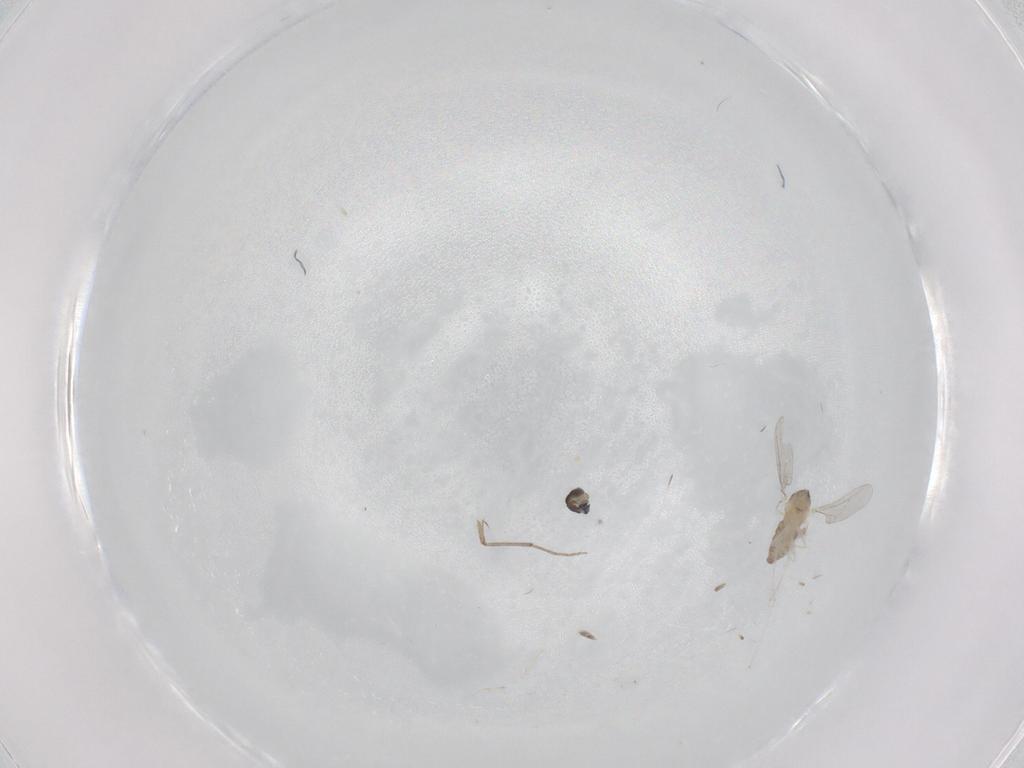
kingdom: Animalia
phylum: Arthropoda
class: Insecta
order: Diptera
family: Cecidomyiidae
